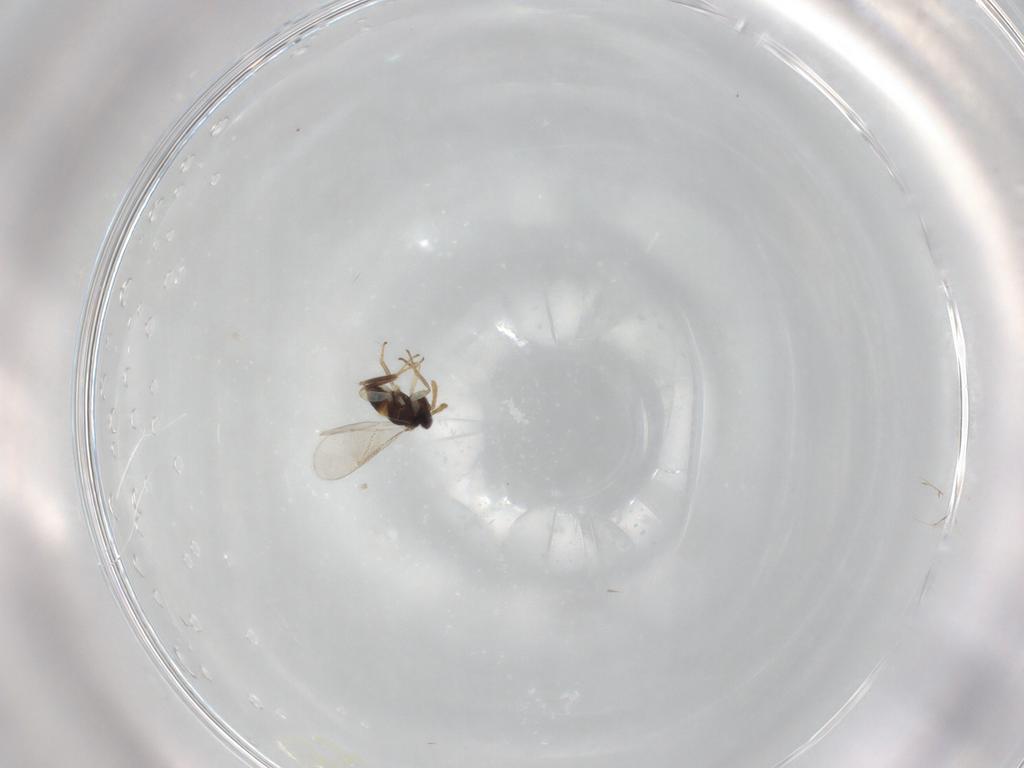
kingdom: Animalia
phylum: Arthropoda
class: Insecta
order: Hymenoptera
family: Aphelinidae
